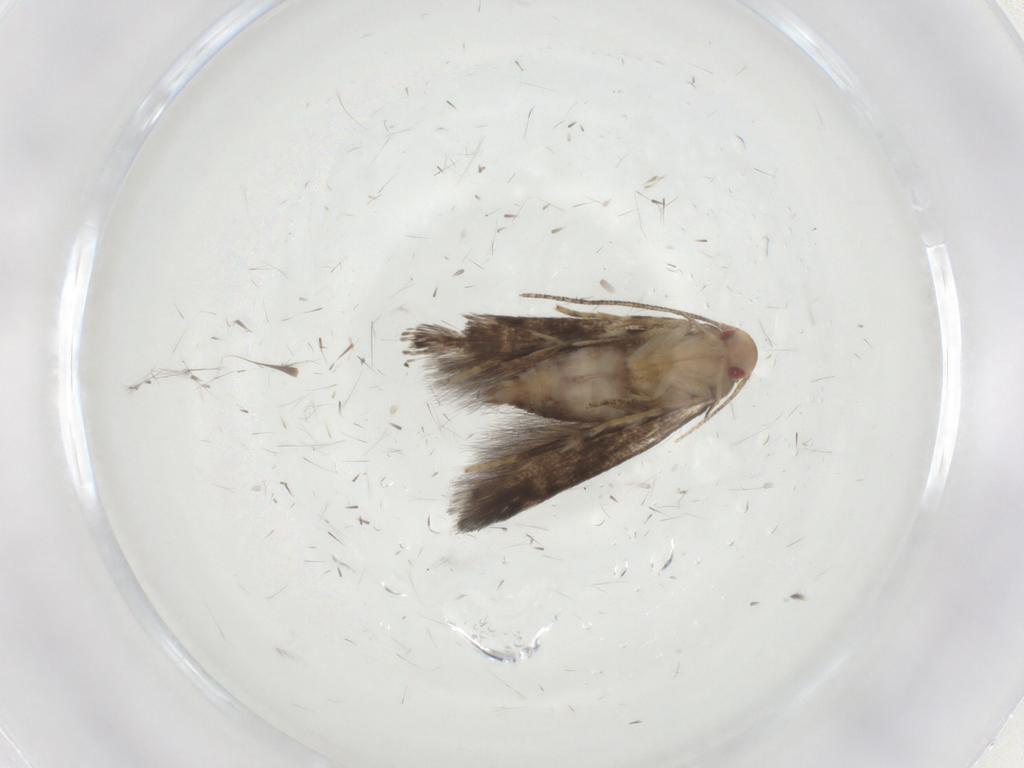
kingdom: Animalia
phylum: Arthropoda
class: Insecta
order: Lepidoptera
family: Momphidae
